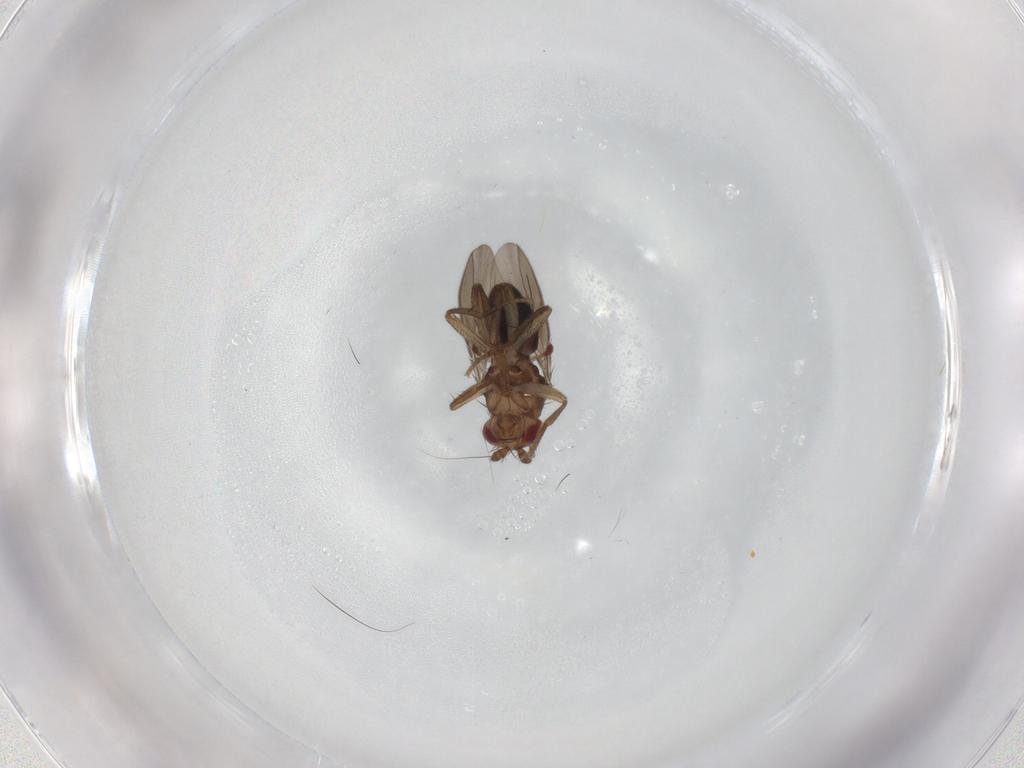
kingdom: Animalia
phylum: Arthropoda
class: Insecta
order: Diptera
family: Sphaeroceridae
